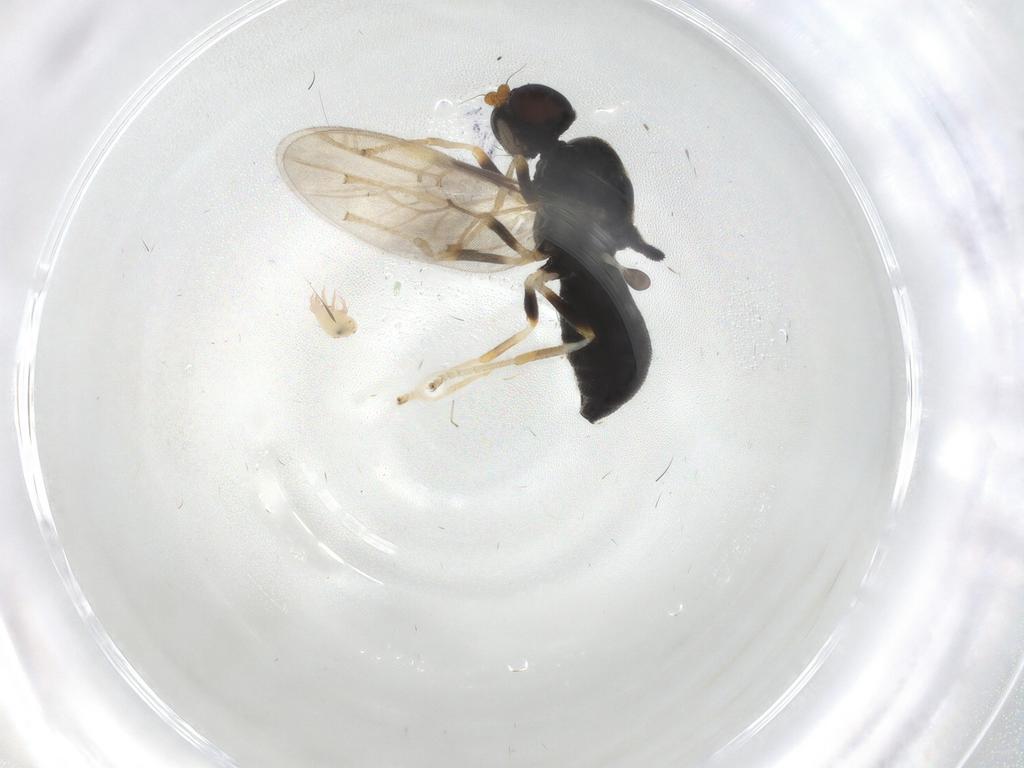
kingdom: Animalia
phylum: Arthropoda
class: Insecta
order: Diptera
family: Stratiomyidae
